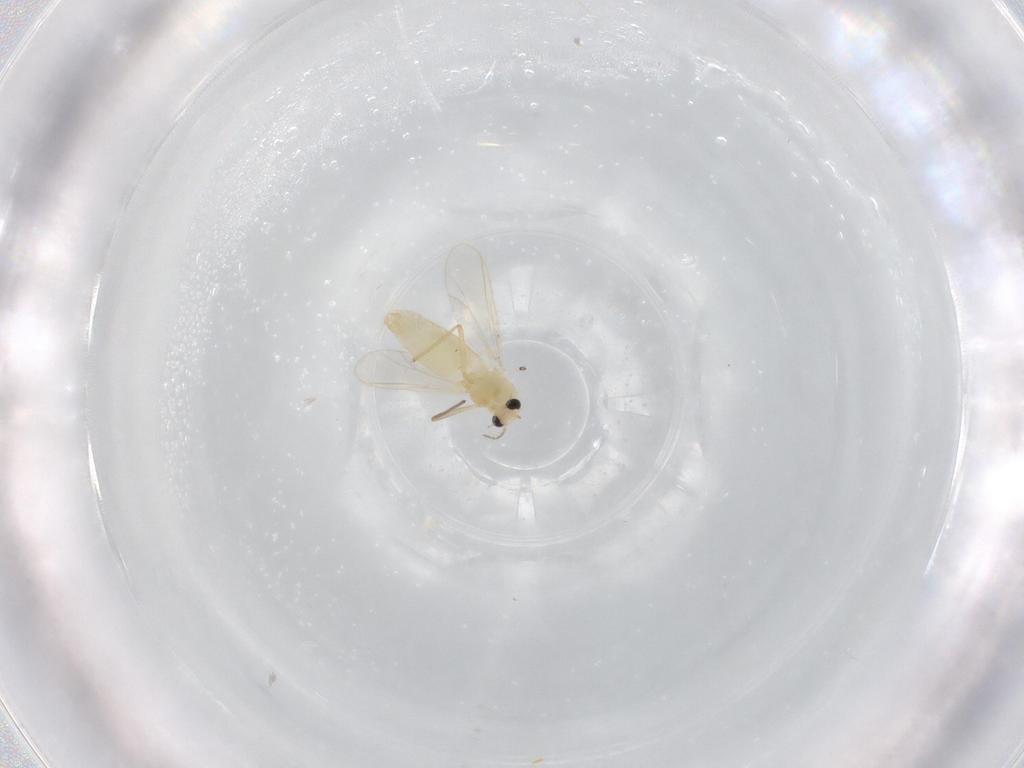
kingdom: Animalia
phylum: Arthropoda
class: Insecta
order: Diptera
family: Chironomidae
